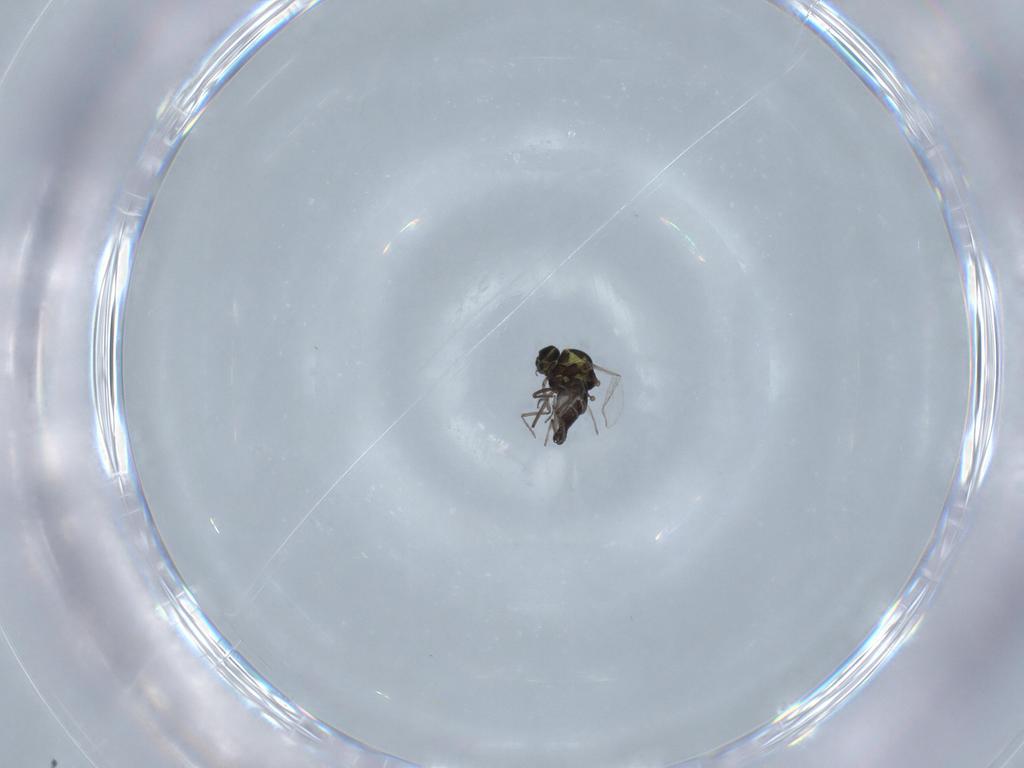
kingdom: Animalia
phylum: Arthropoda
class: Insecta
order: Diptera
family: Ceratopogonidae
